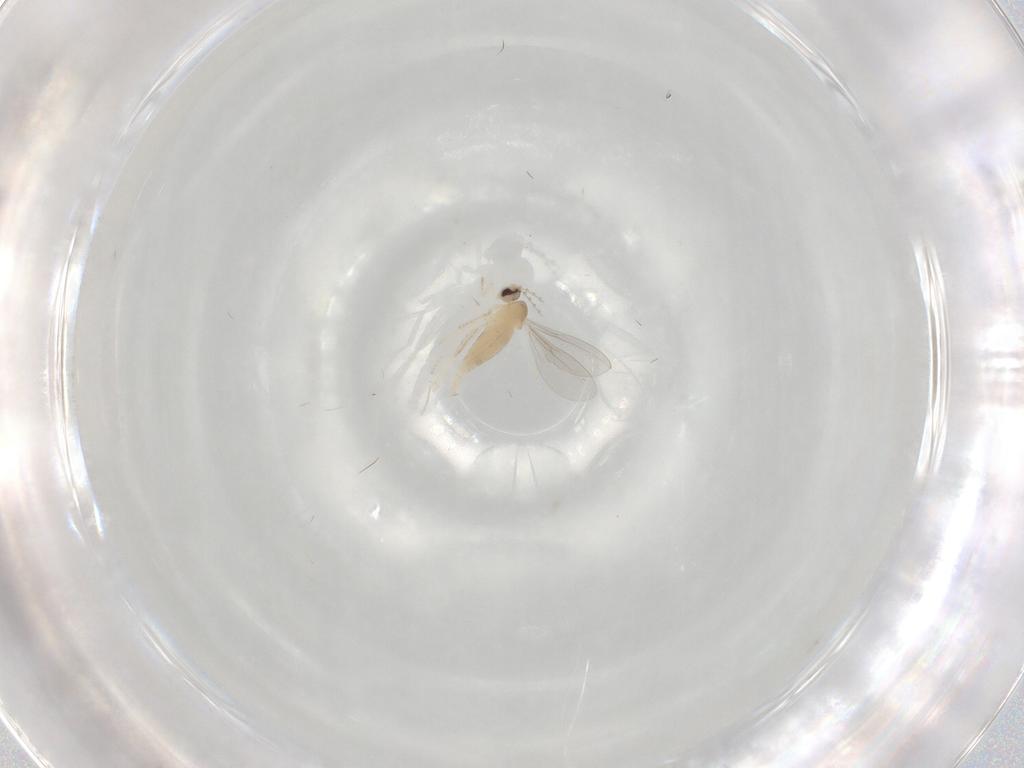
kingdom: Animalia
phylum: Arthropoda
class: Insecta
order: Diptera
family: Cecidomyiidae
